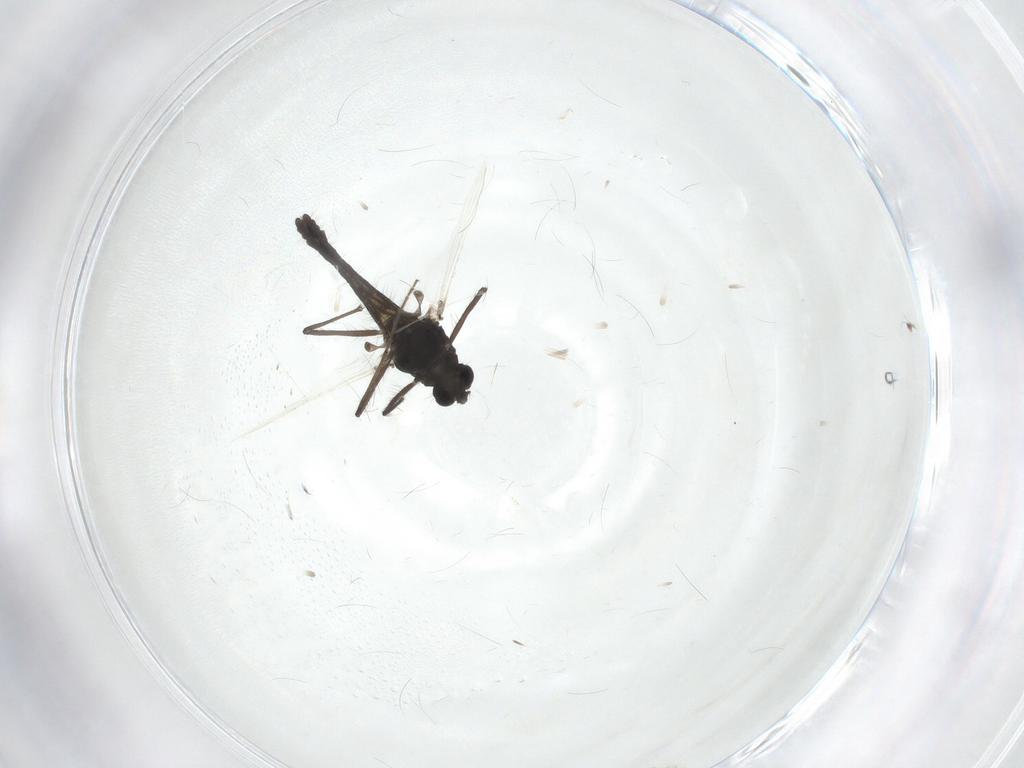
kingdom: Animalia
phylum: Arthropoda
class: Insecta
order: Diptera
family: Chironomidae
